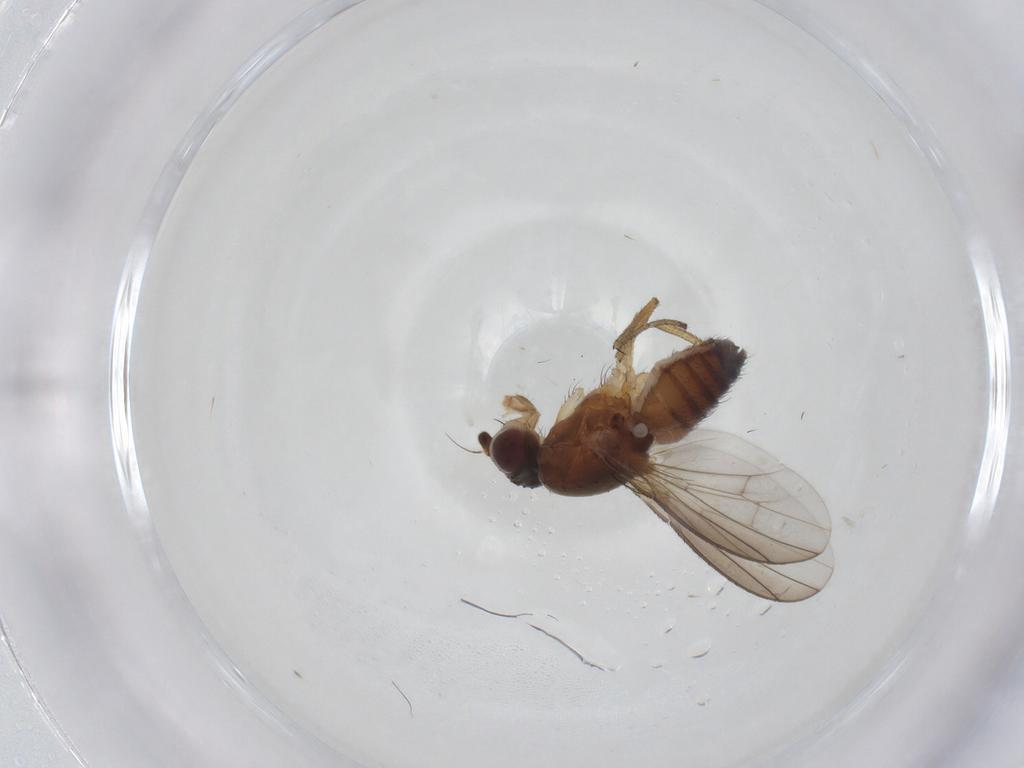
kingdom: Animalia
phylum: Arthropoda
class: Insecta
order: Diptera
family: Heleomyzidae
